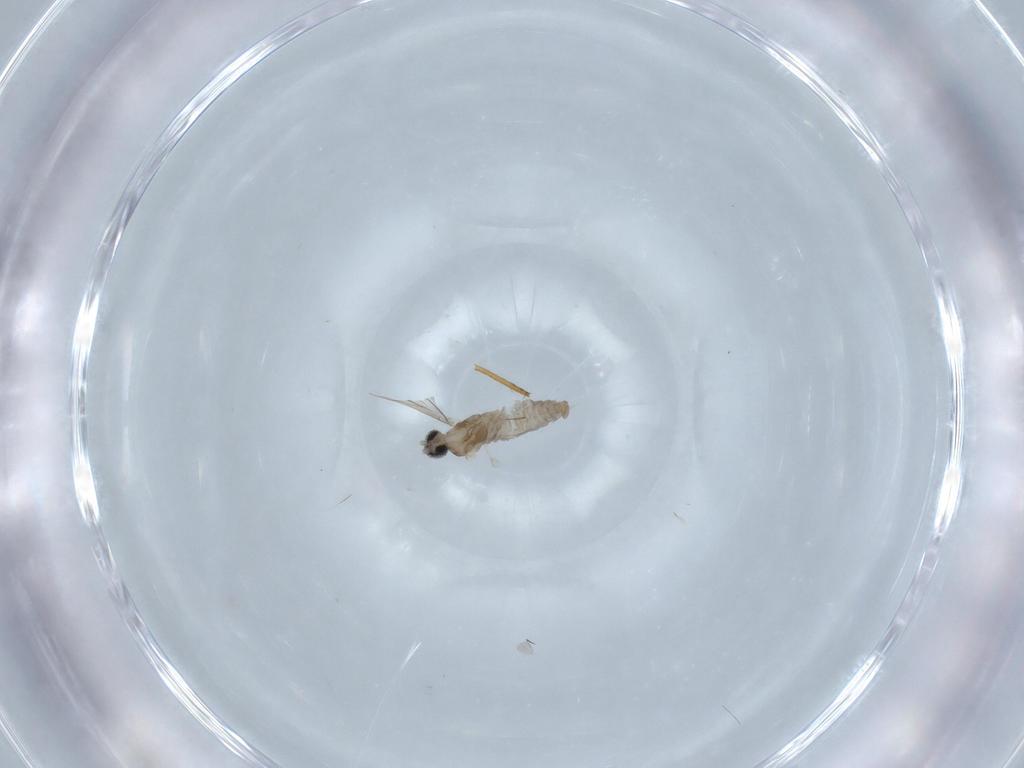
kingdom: Animalia
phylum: Arthropoda
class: Insecta
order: Diptera
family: Cecidomyiidae
